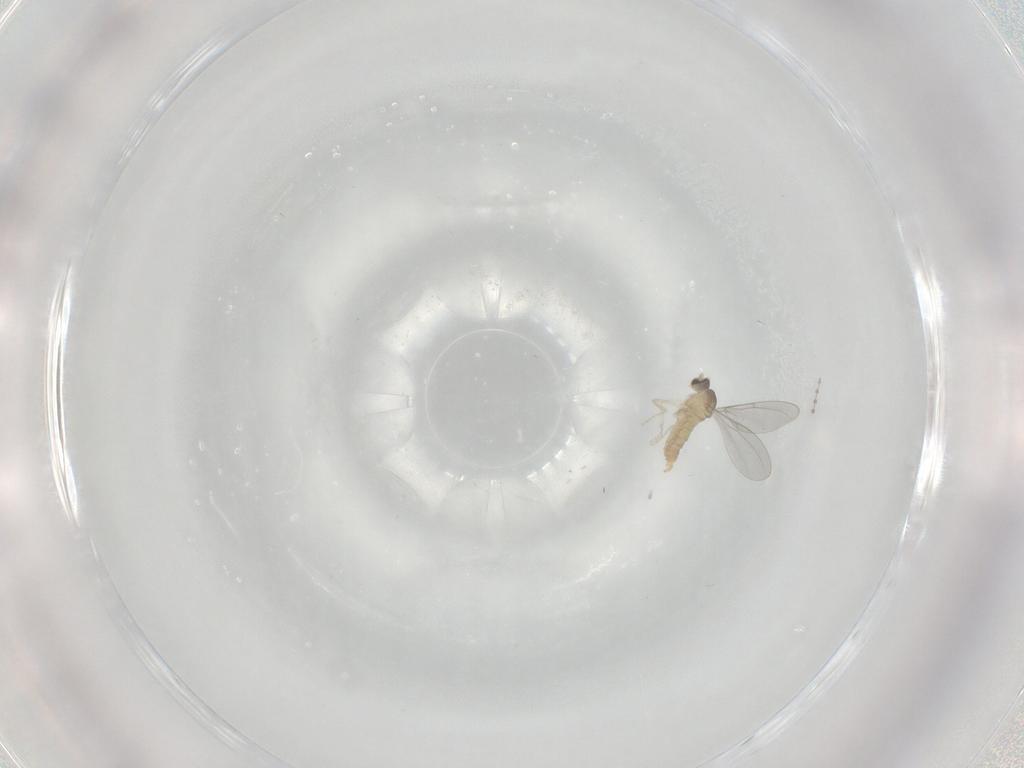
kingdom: Animalia
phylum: Arthropoda
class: Insecta
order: Diptera
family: Cecidomyiidae
